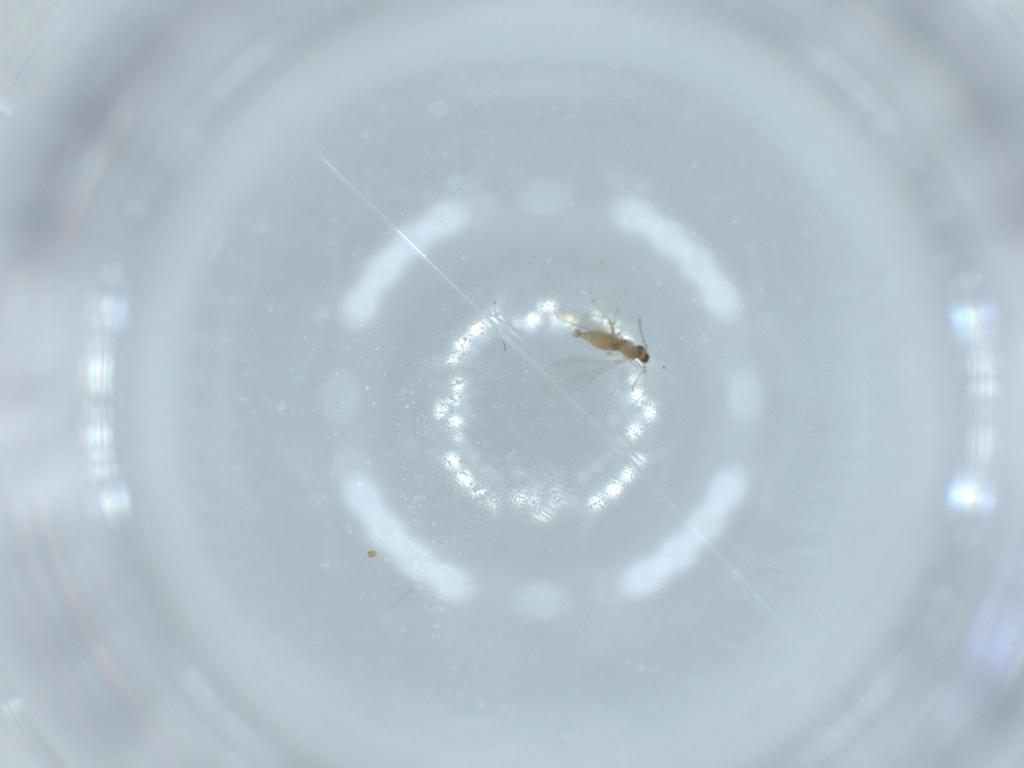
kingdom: Animalia
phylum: Arthropoda
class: Insecta
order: Diptera
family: Cecidomyiidae
